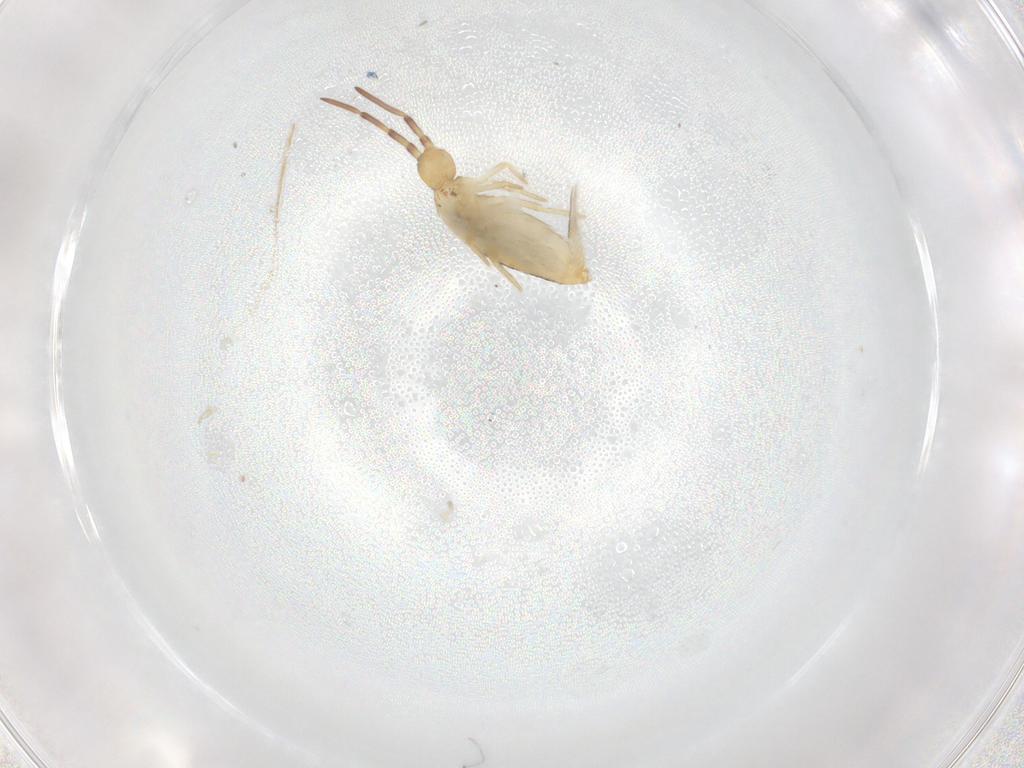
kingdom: Animalia
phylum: Arthropoda
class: Collembola
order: Entomobryomorpha
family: Entomobryidae
